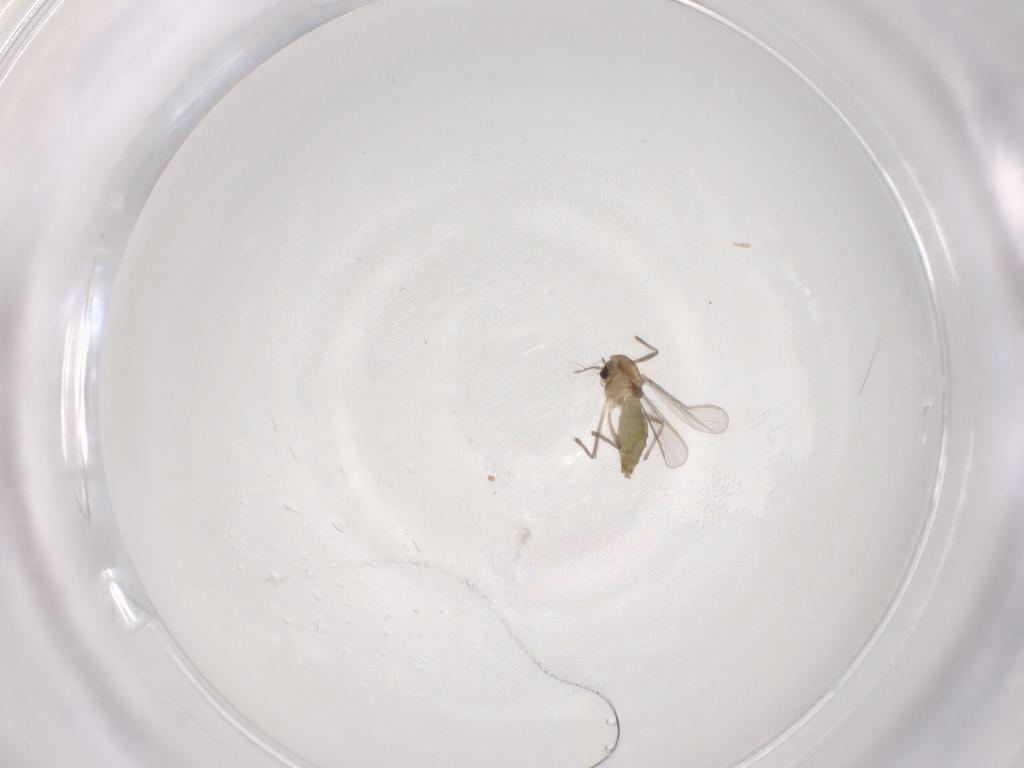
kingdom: Animalia
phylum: Arthropoda
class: Insecta
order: Diptera
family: Chironomidae
